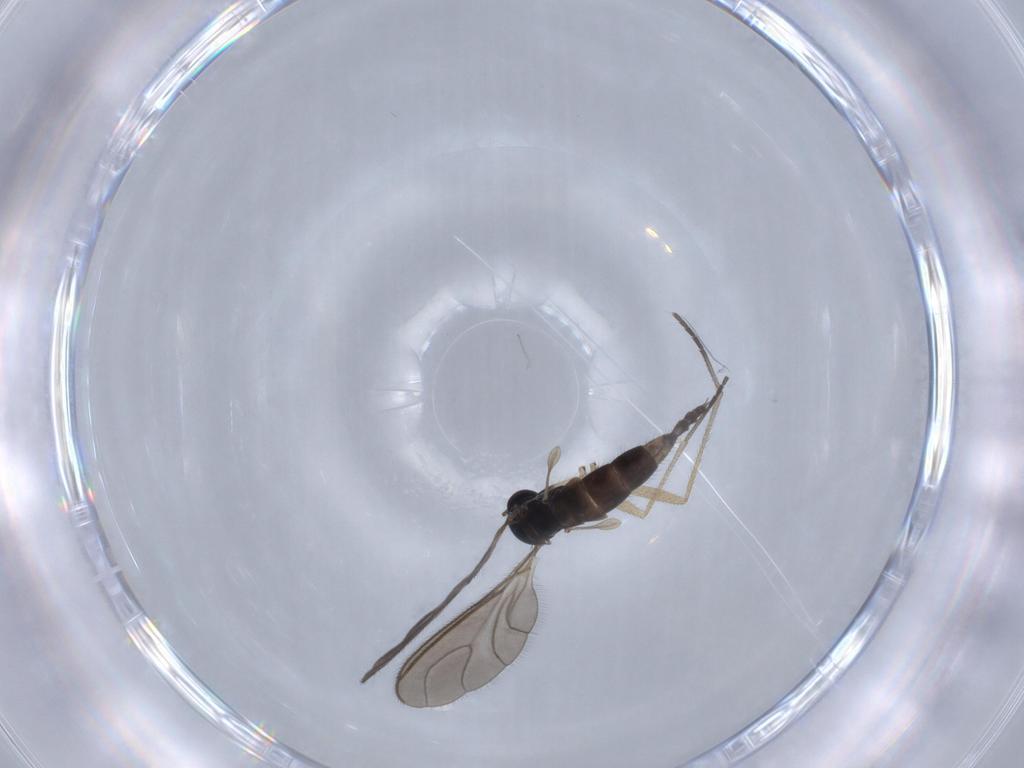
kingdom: Animalia
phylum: Arthropoda
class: Insecta
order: Diptera
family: Sciaridae
